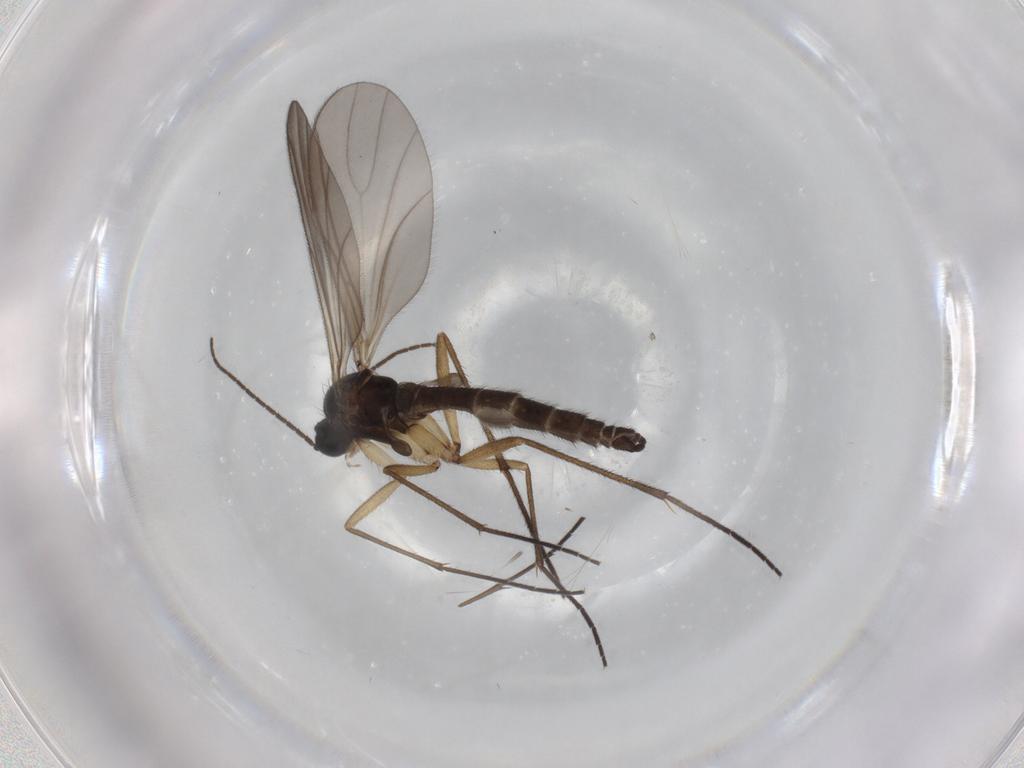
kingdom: Animalia
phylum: Arthropoda
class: Insecta
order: Diptera
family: Sciaridae
